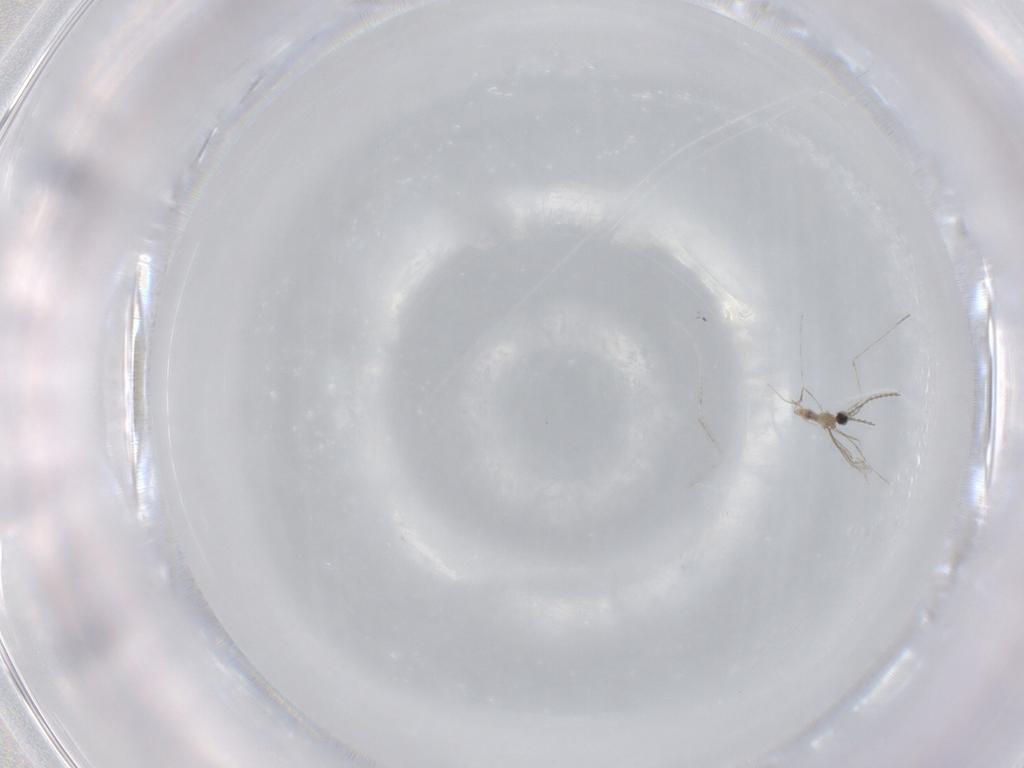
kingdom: Animalia
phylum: Arthropoda
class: Insecta
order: Diptera
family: Cecidomyiidae
